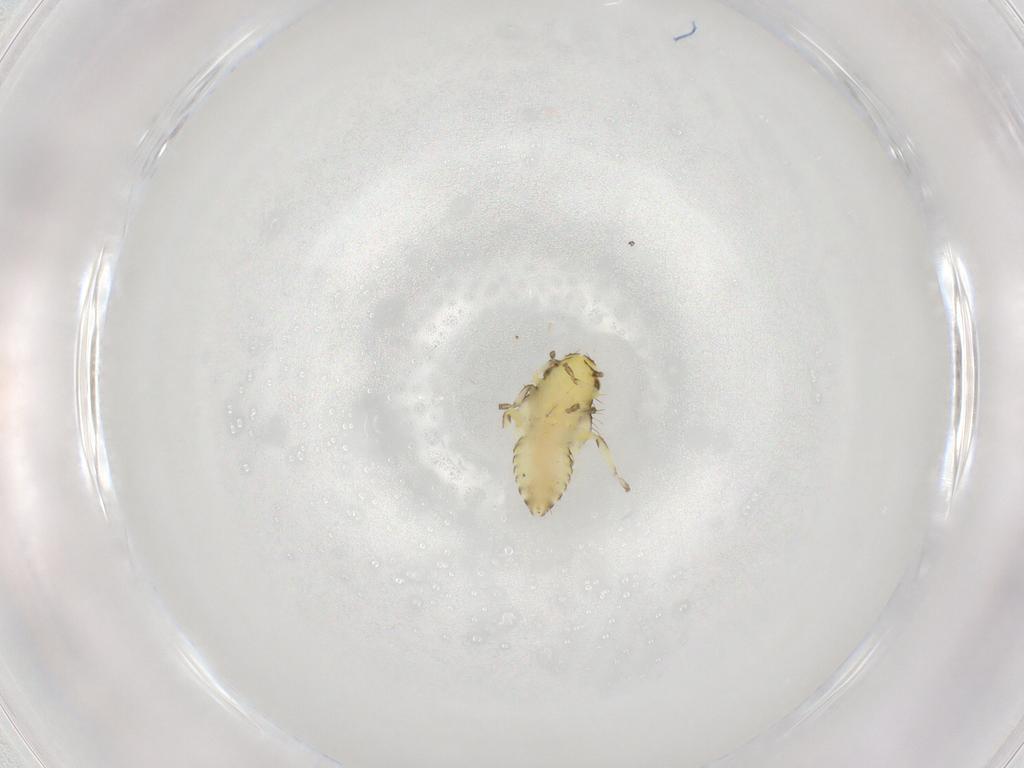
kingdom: Animalia
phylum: Arthropoda
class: Insecta
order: Hemiptera
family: Cicadellidae
